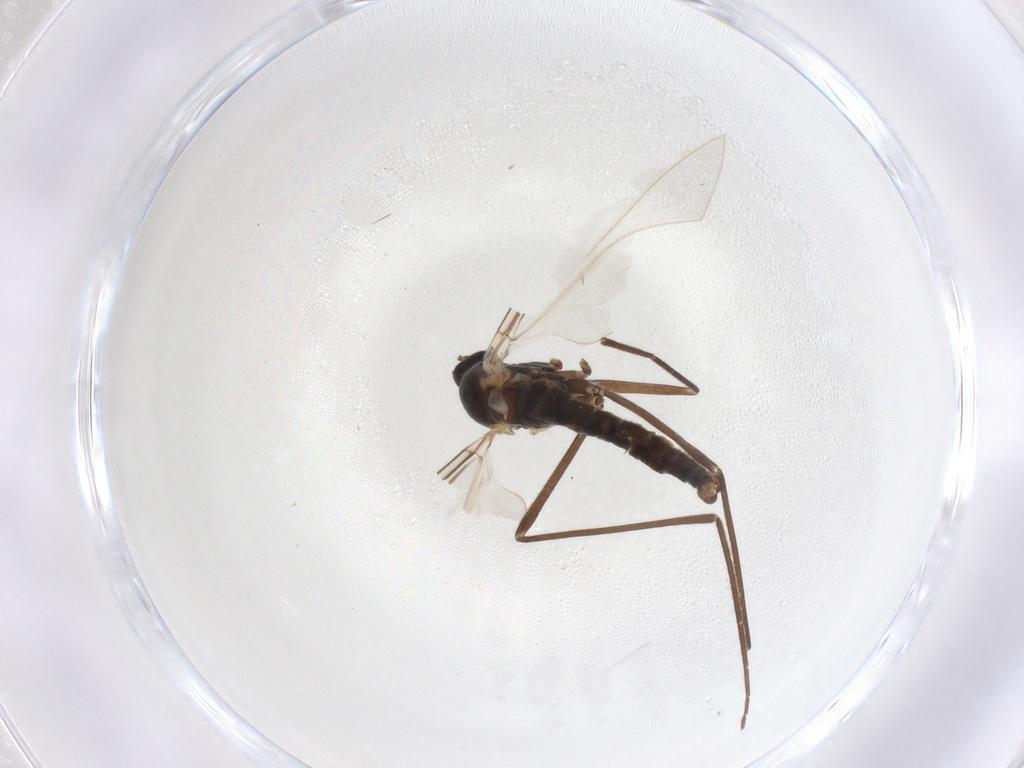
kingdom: Animalia
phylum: Arthropoda
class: Insecta
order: Diptera
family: Cecidomyiidae
